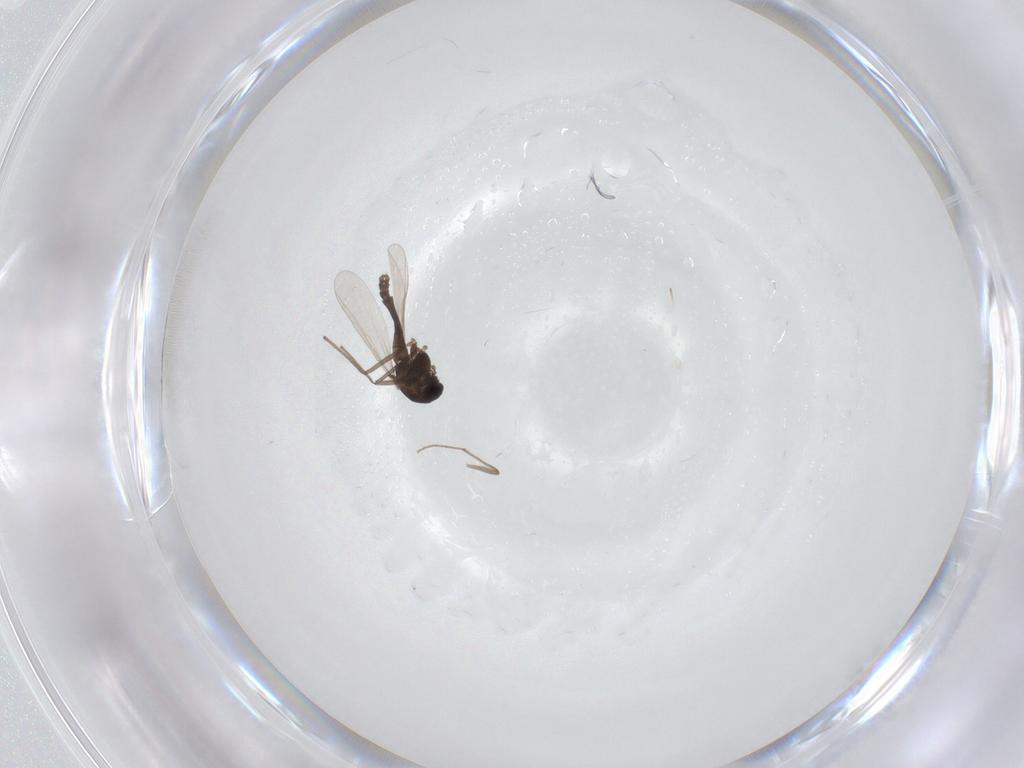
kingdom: Animalia
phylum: Arthropoda
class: Insecta
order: Diptera
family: Chironomidae
